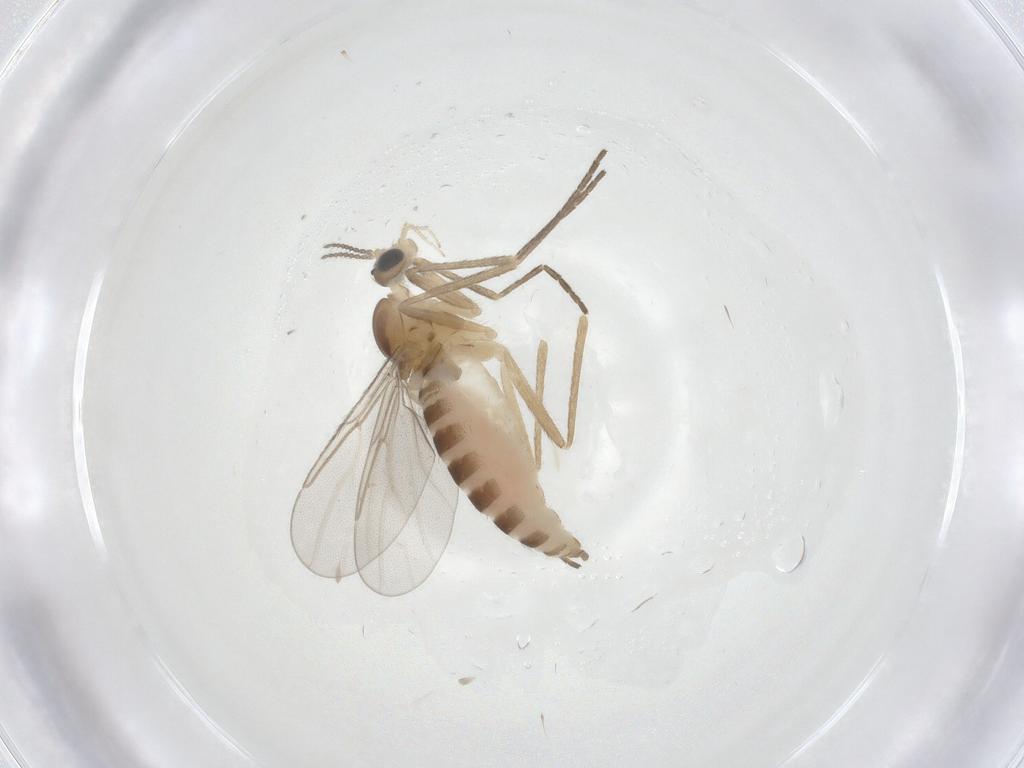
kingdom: Animalia
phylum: Arthropoda
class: Insecta
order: Diptera
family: Cecidomyiidae
